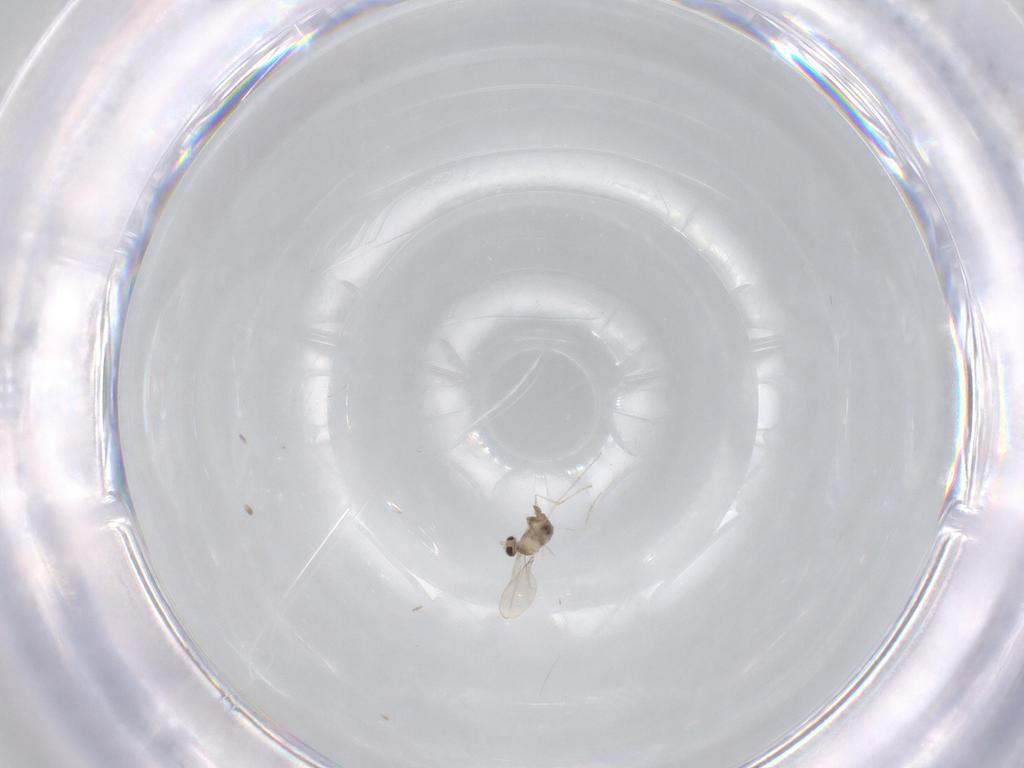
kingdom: Animalia
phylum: Arthropoda
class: Insecta
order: Diptera
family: Cecidomyiidae
